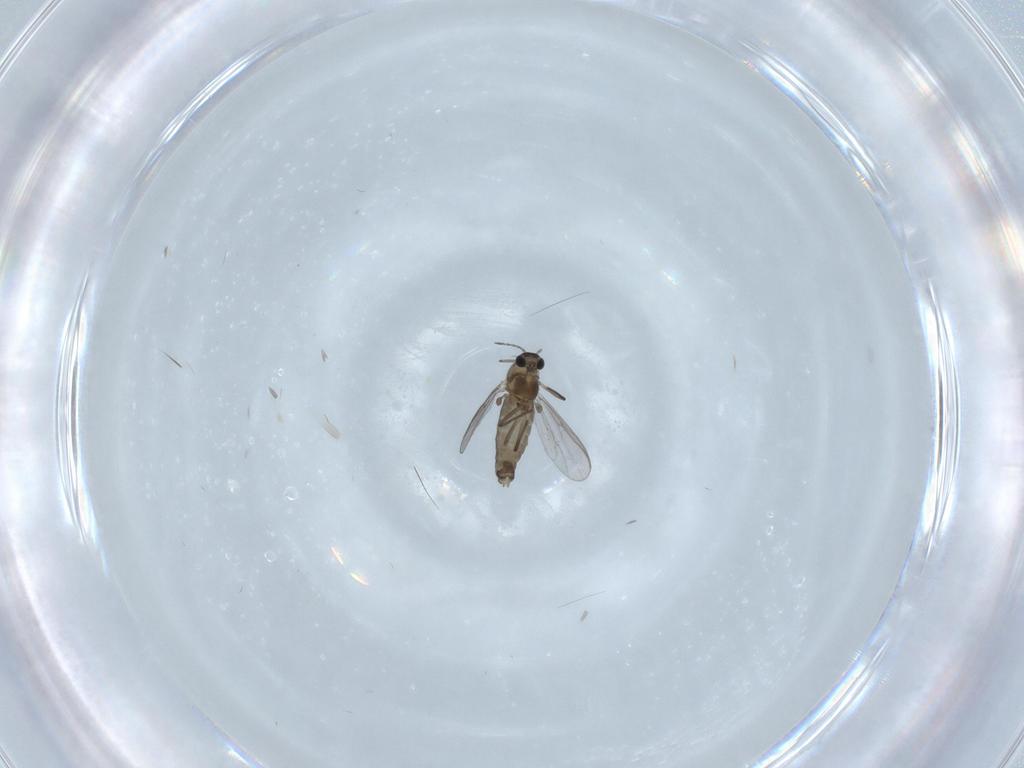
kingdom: Animalia
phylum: Arthropoda
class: Insecta
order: Diptera
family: Chironomidae
